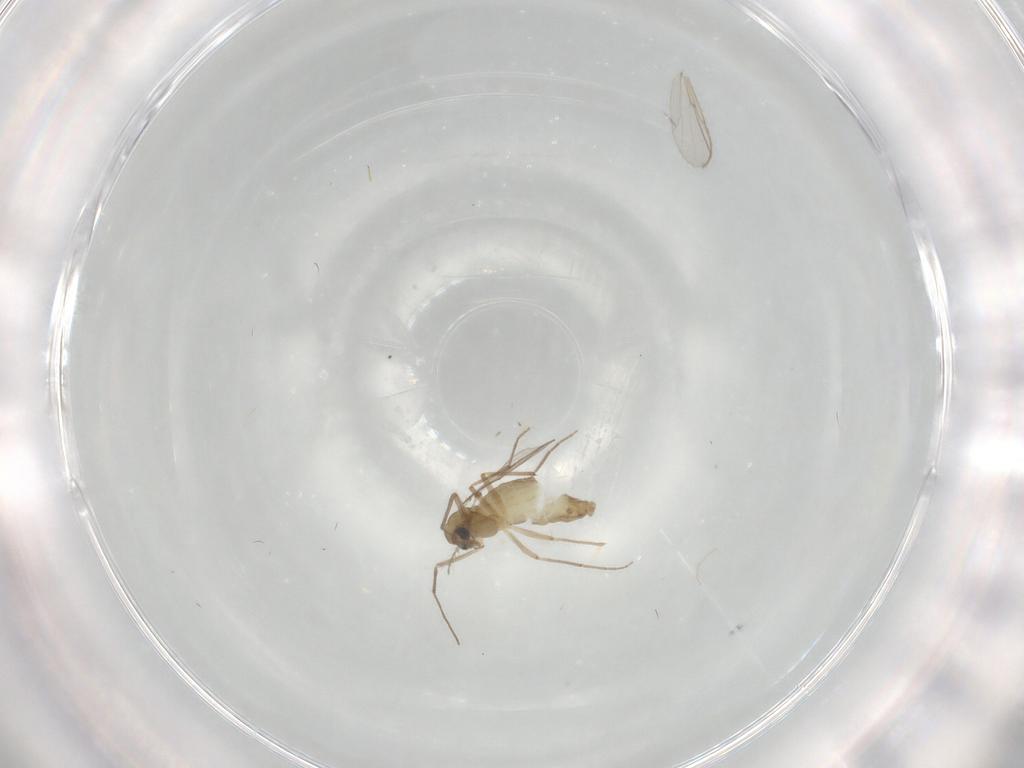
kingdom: Animalia
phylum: Arthropoda
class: Insecta
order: Diptera
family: Chironomidae
